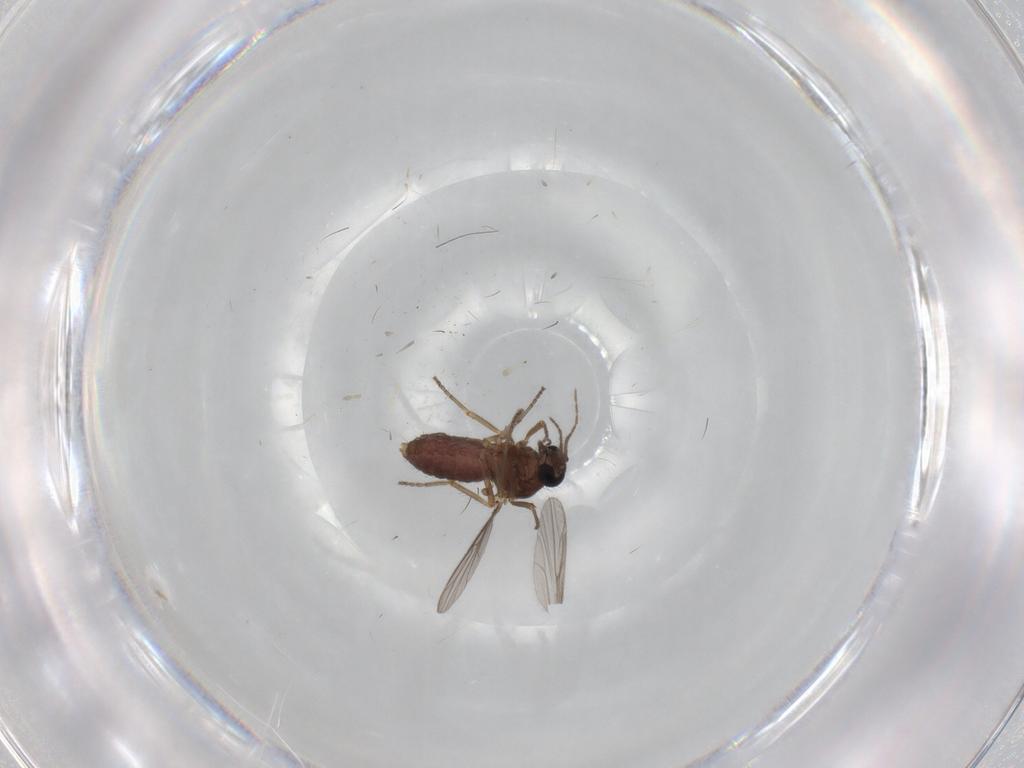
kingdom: Animalia
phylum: Arthropoda
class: Insecta
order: Diptera
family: Ceratopogonidae
